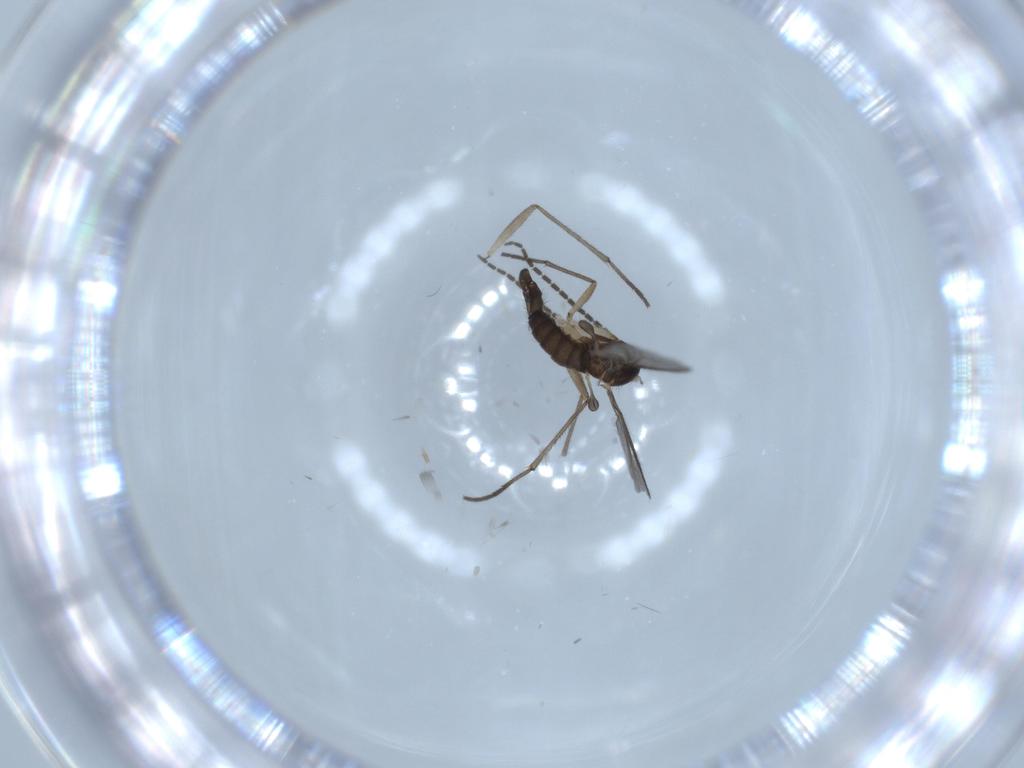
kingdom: Animalia
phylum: Arthropoda
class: Insecta
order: Diptera
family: Sciaridae
